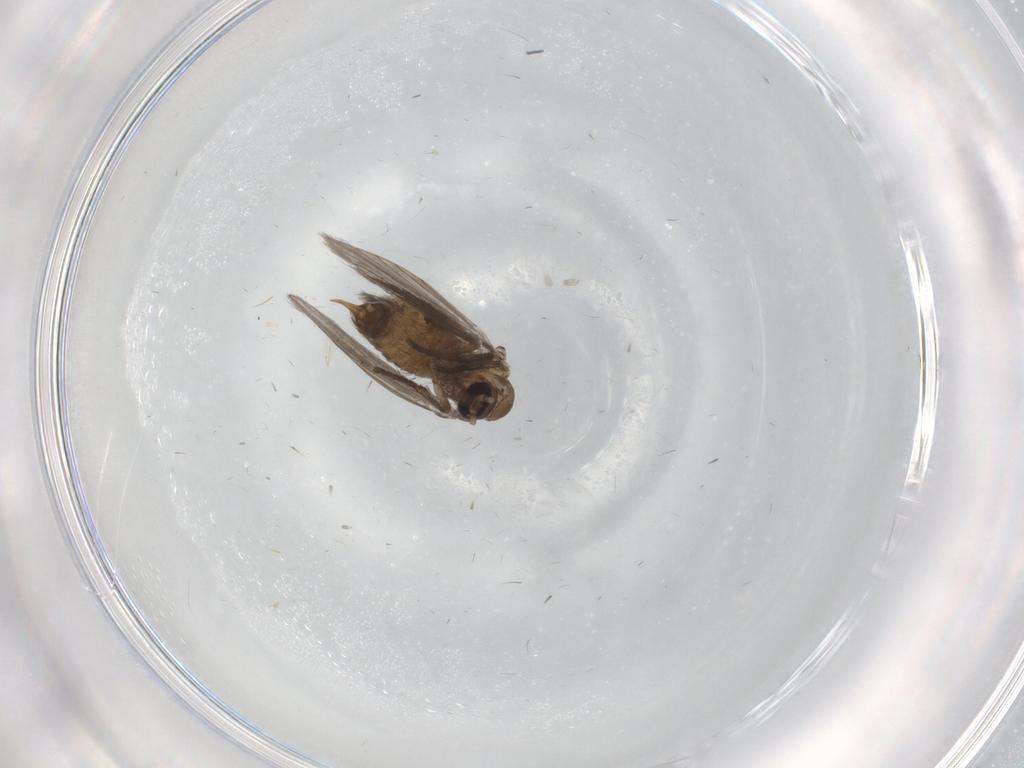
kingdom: Animalia
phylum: Arthropoda
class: Insecta
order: Diptera
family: Psychodidae
